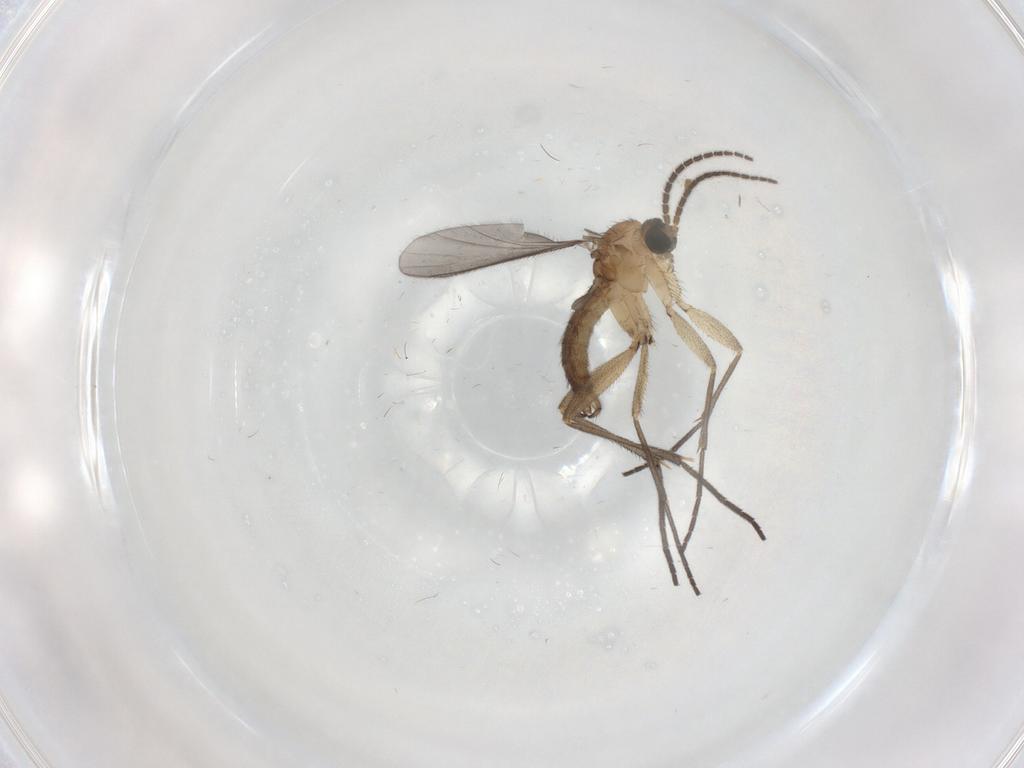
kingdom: Animalia
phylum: Arthropoda
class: Insecta
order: Diptera
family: Sciaridae
